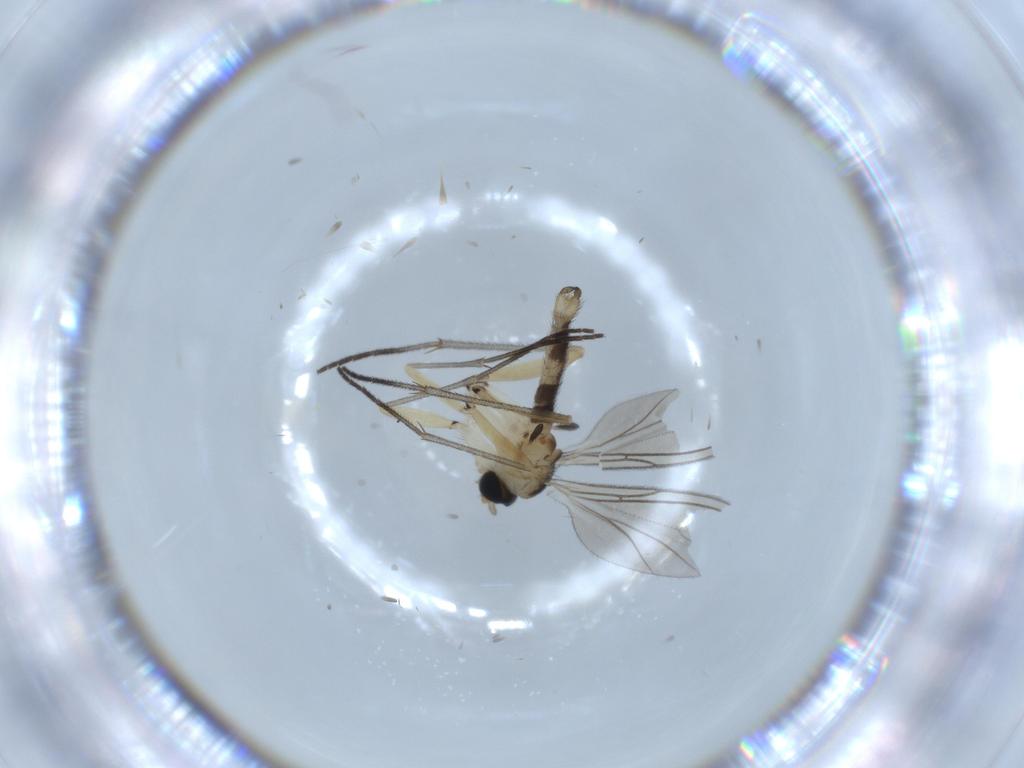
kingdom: Animalia
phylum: Arthropoda
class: Insecta
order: Diptera
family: Sciaridae
